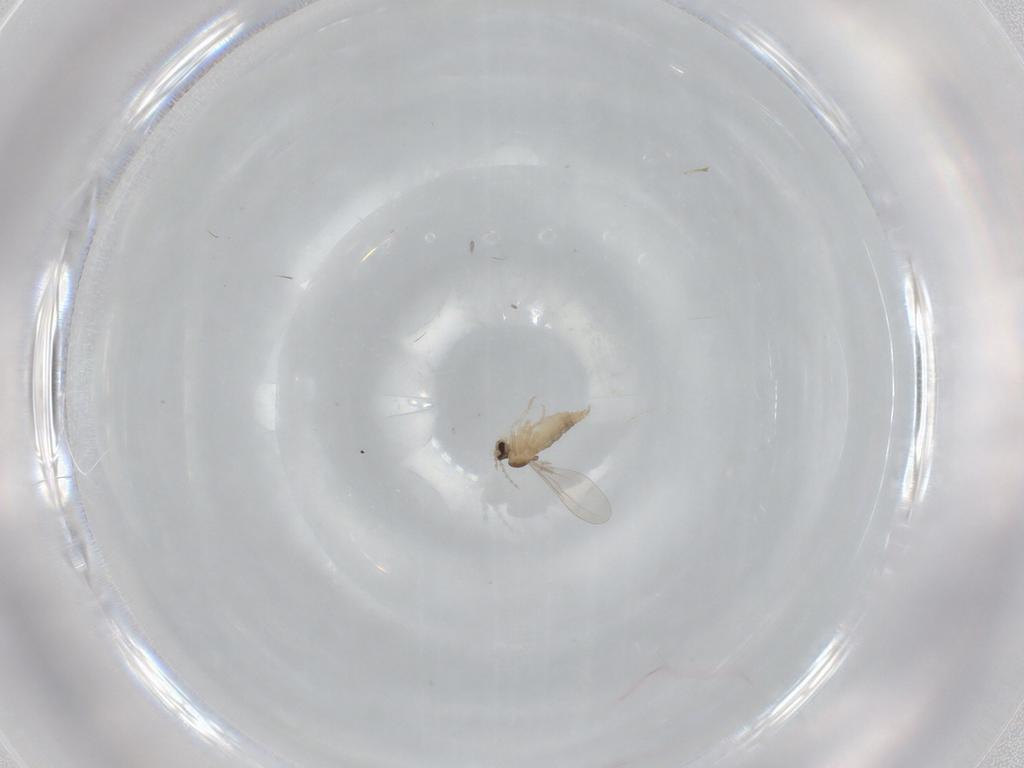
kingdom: Animalia
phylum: Arthropoda
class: Insecta
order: Diptera
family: Cecidomyiidae
